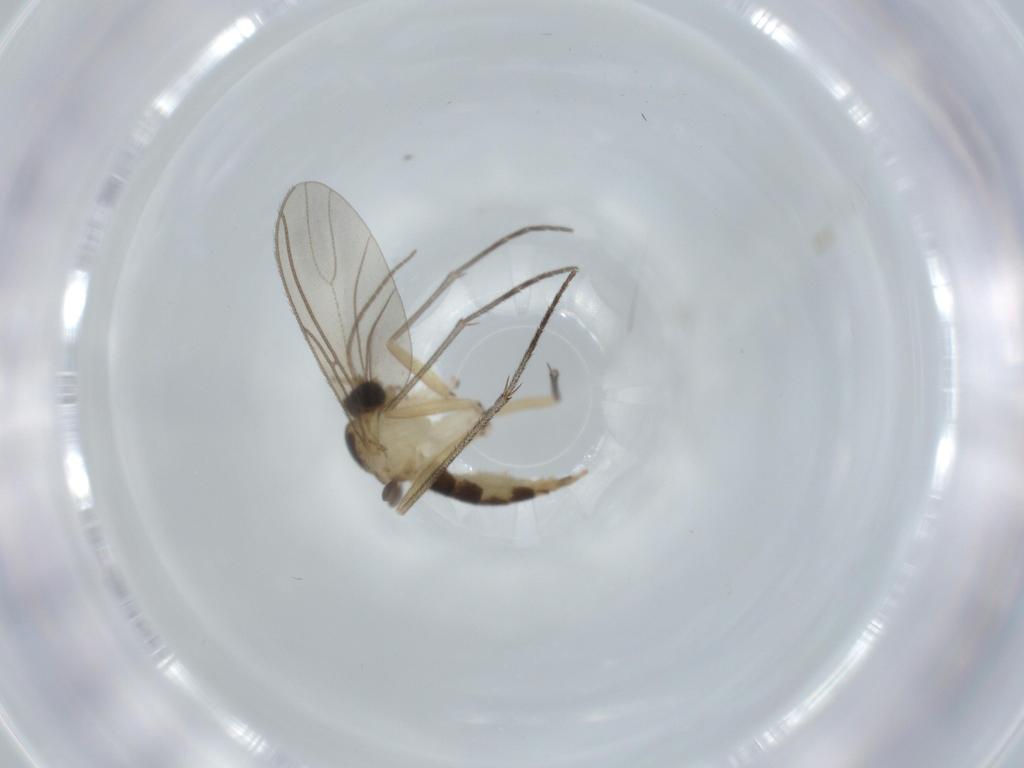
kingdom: Animalia
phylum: Arthropoda
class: Insecta
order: Diptera
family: Sciaridae
